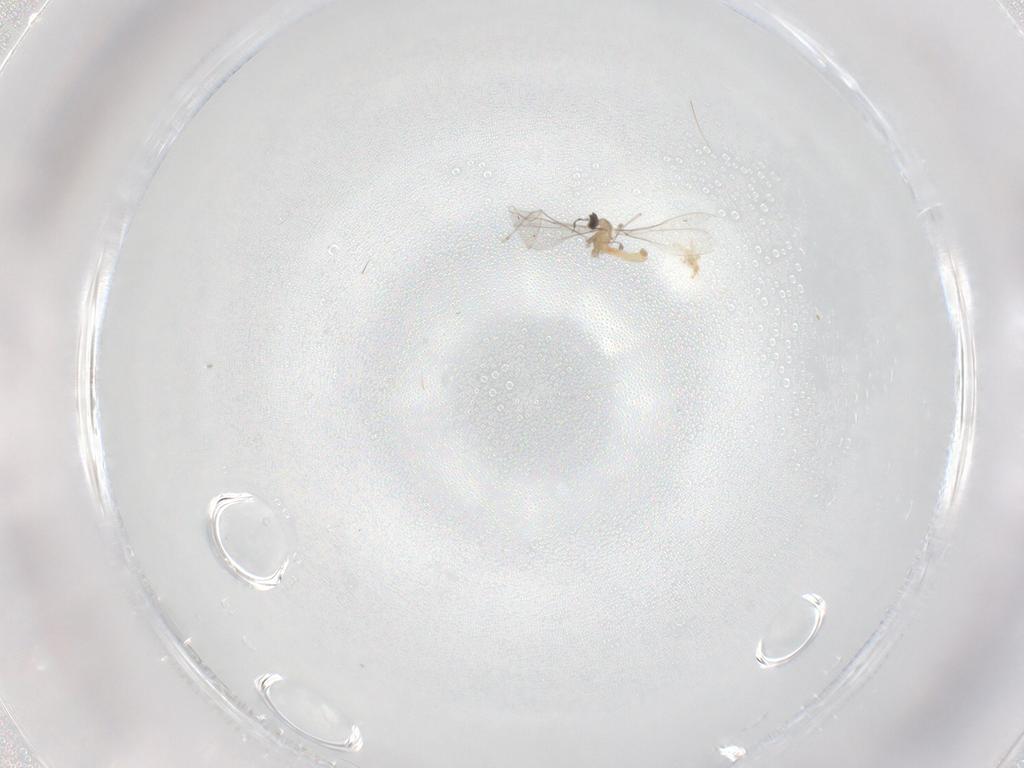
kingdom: Animalia
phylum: Arthropoda
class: Insecta
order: Diptera
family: Cecidomyiidae
